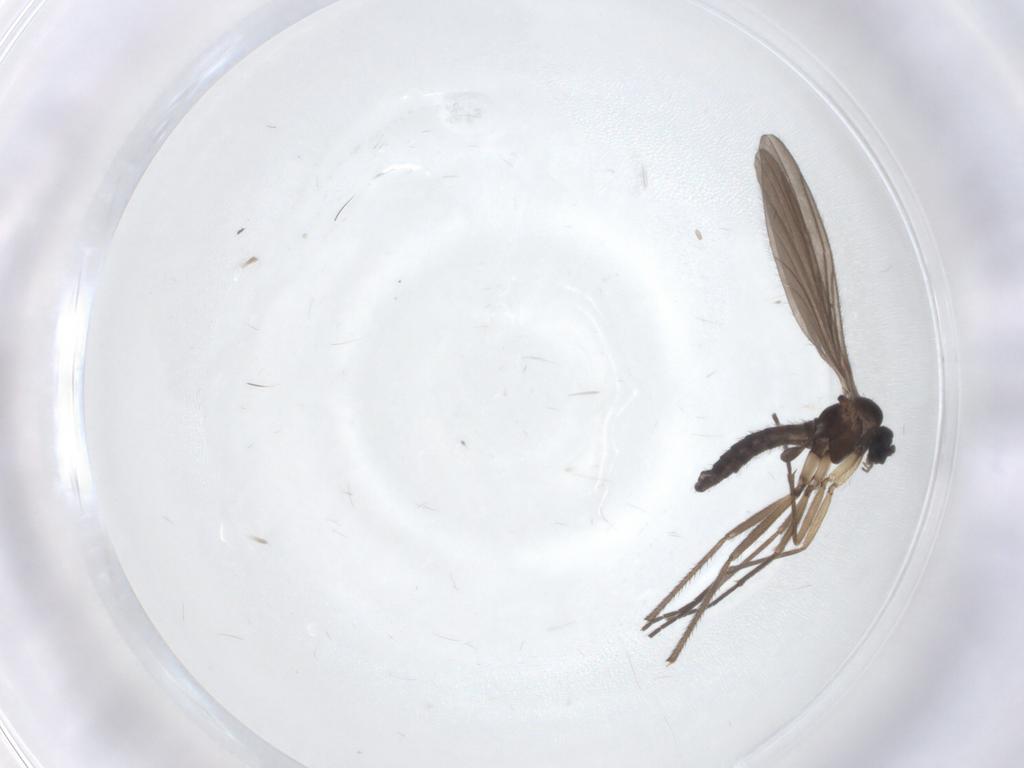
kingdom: Animalia
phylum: Arthropoda
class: Insecta
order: Diptera
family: Sciaridae
